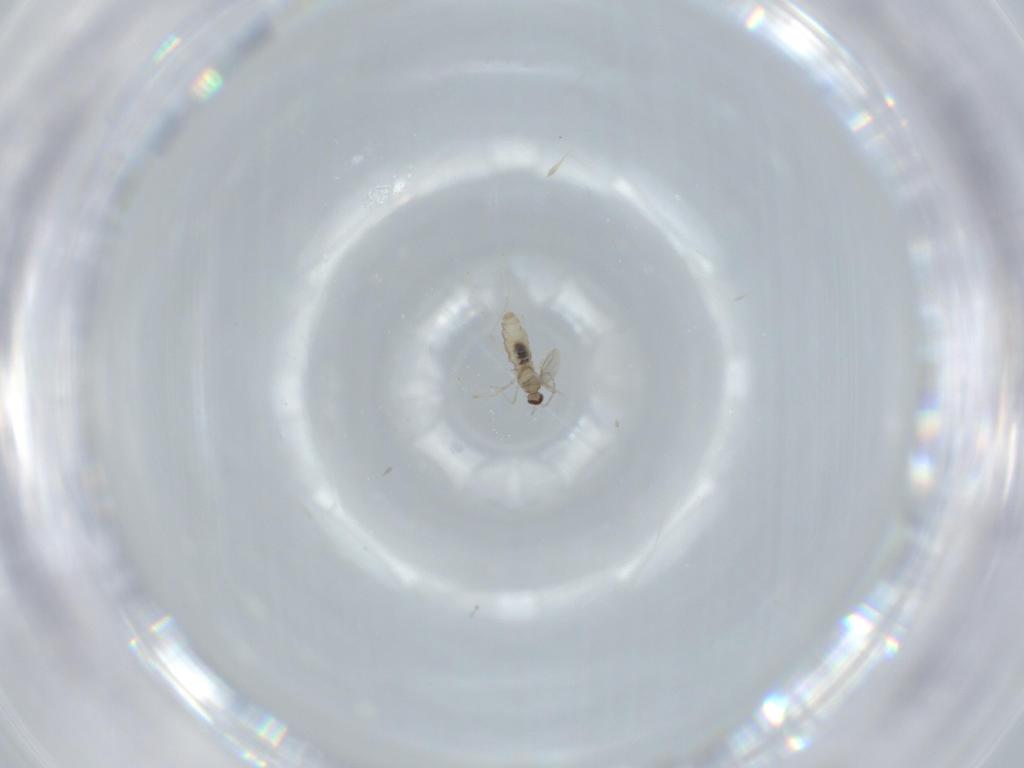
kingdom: Animalia
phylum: Arthropoda
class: Insecta
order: Diptera
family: Cecidomyiidae
